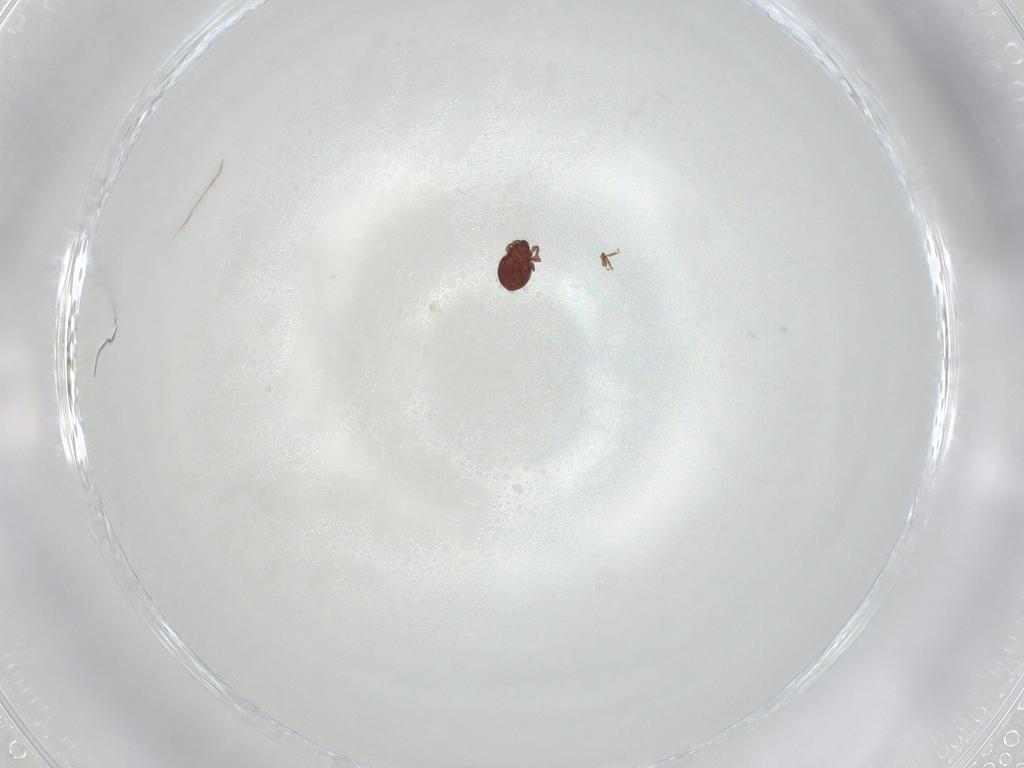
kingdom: Animalia
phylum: Arthropoda
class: Arachnida
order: Sarcoptiformes
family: Scheloribatidae
